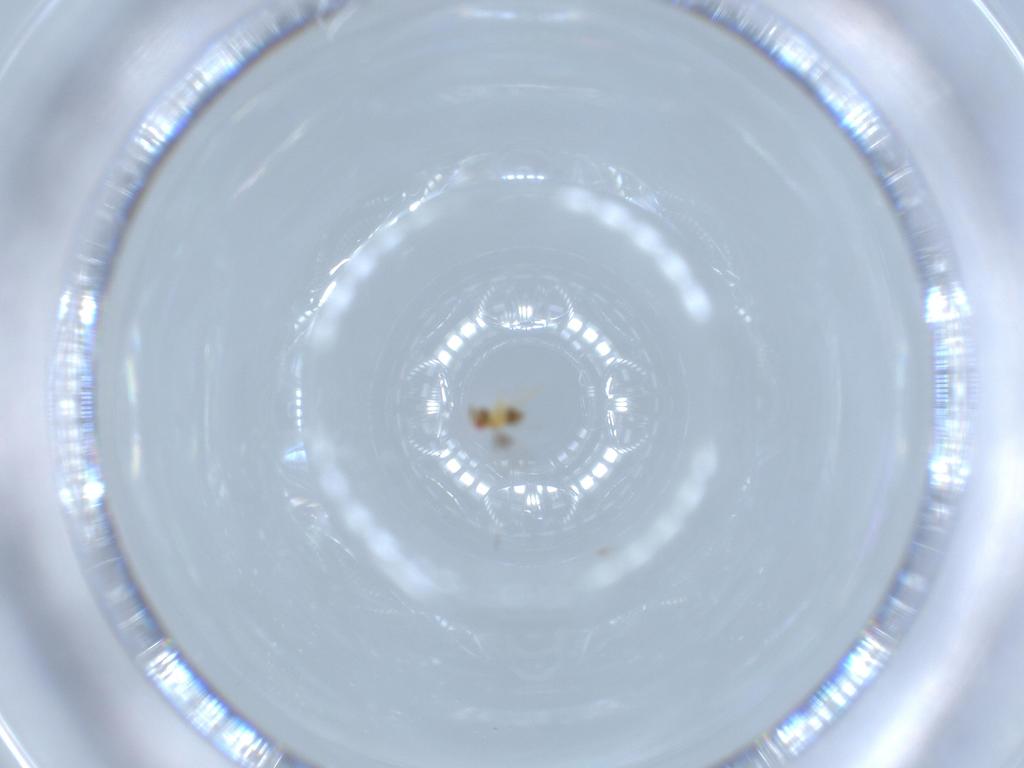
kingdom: Animalia
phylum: Arthropoda
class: Insecta
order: Hymenoptera
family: Trichogrammatidae
